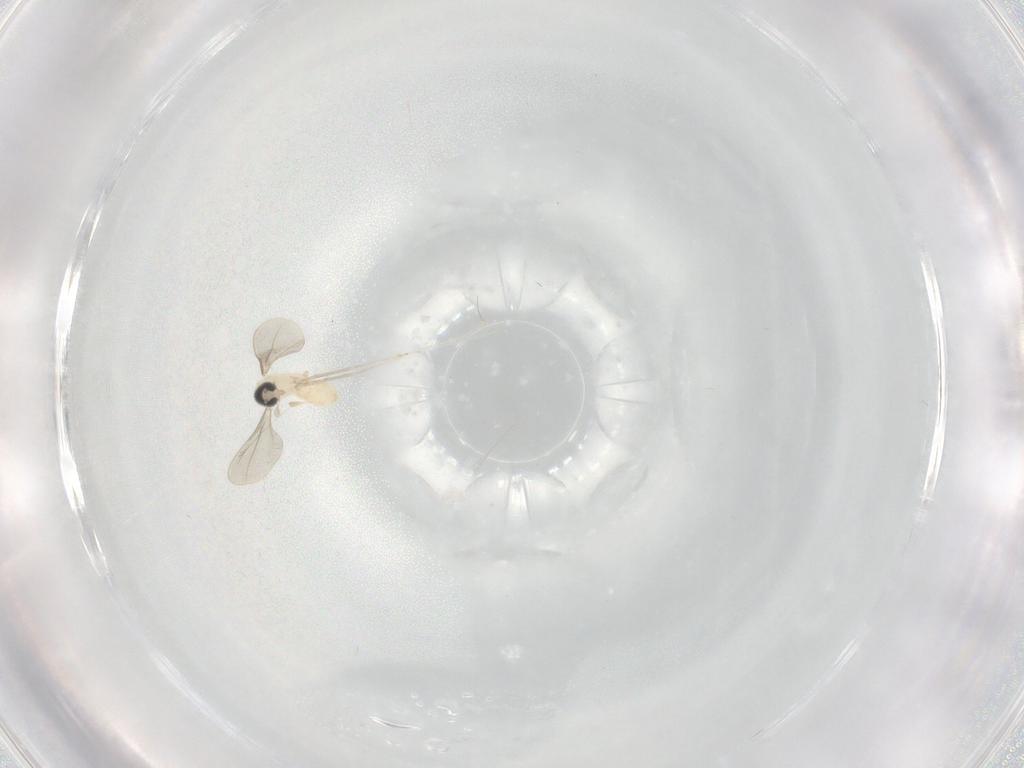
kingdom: Animalia
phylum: Arthropoda
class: Insecta
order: Diptera
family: Cecidomyiidae
